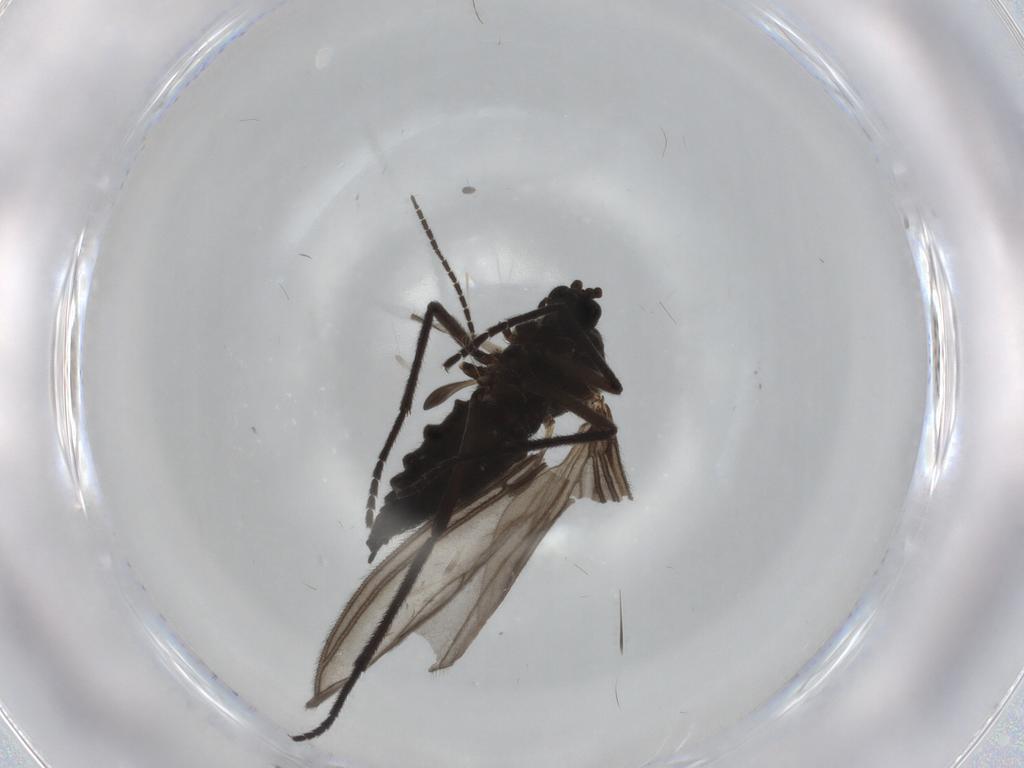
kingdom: Animalia
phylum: Arthropoda
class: Insecta
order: Diptera
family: Sciaridae
